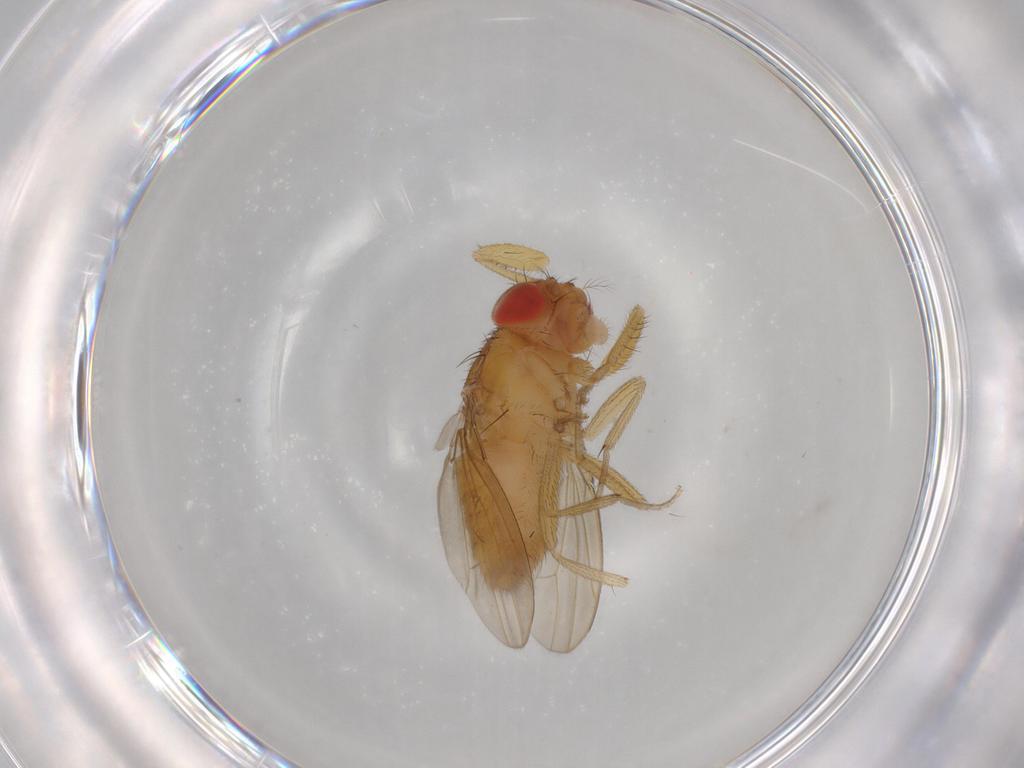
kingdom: Animalia
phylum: Arthropoda
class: Insecta
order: Diptera
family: Drosophilidae
